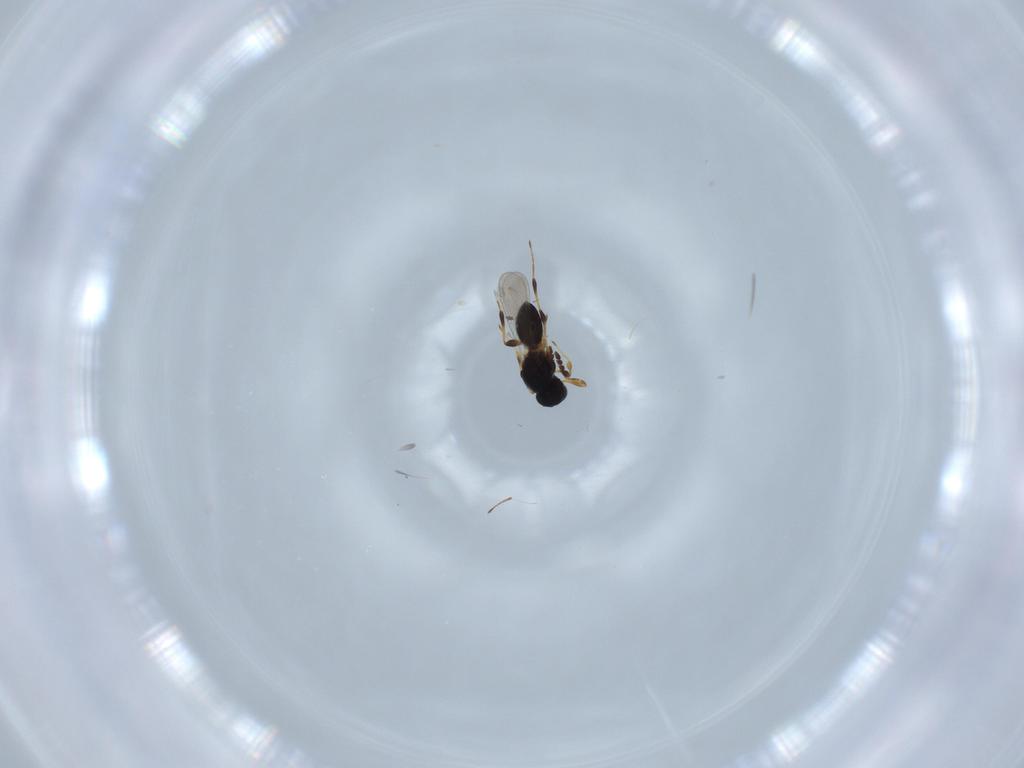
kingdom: Animalia
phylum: Arthropoda
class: Insecta
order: Hymenoptera
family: Platygastridae
